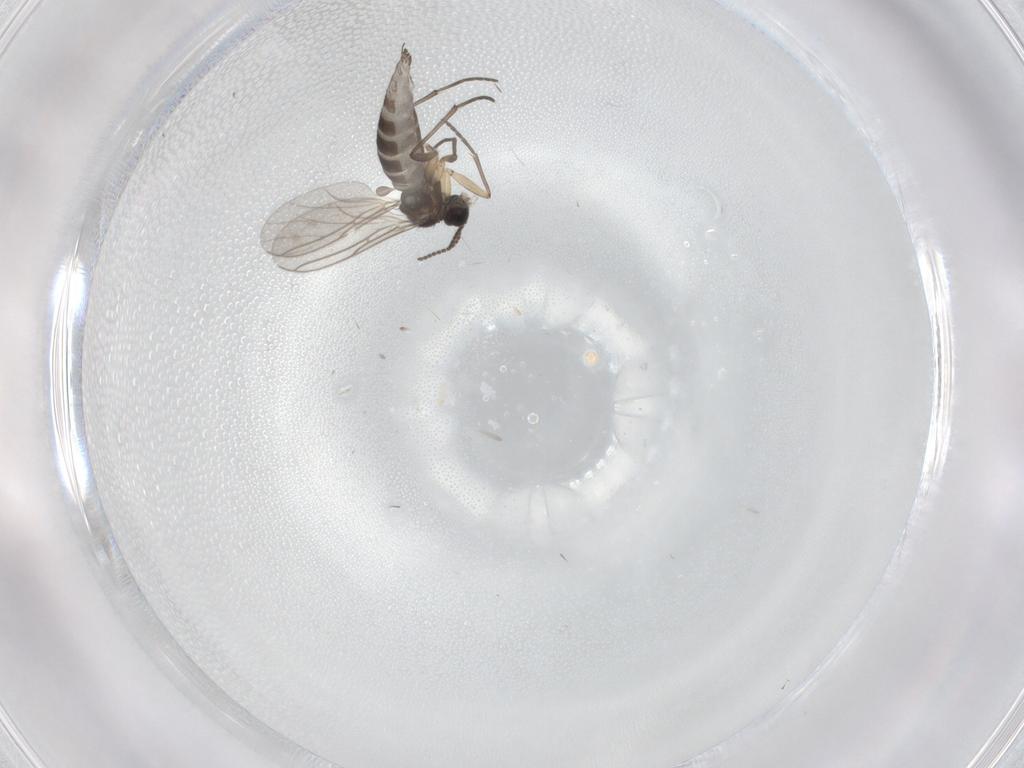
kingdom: Animalia
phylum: Arthropoda
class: Insecta
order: Diptera
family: Sciaridae
